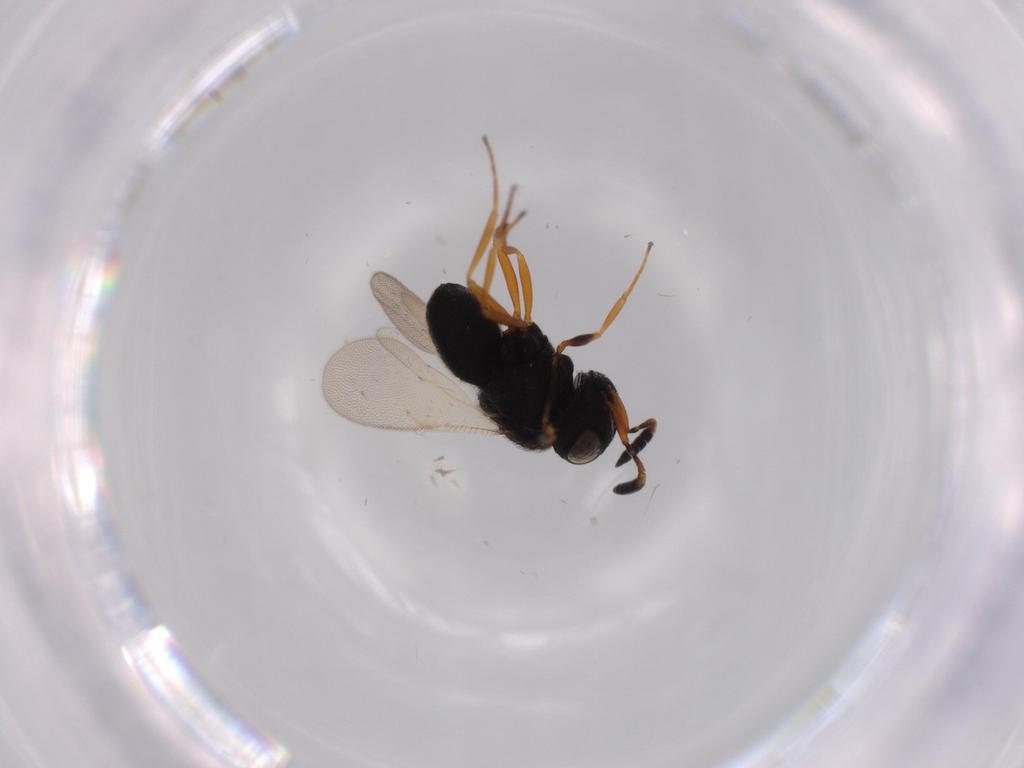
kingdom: Animalia
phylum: Arthropoda
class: Insecta
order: Hymenoptera
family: Scelionidae
